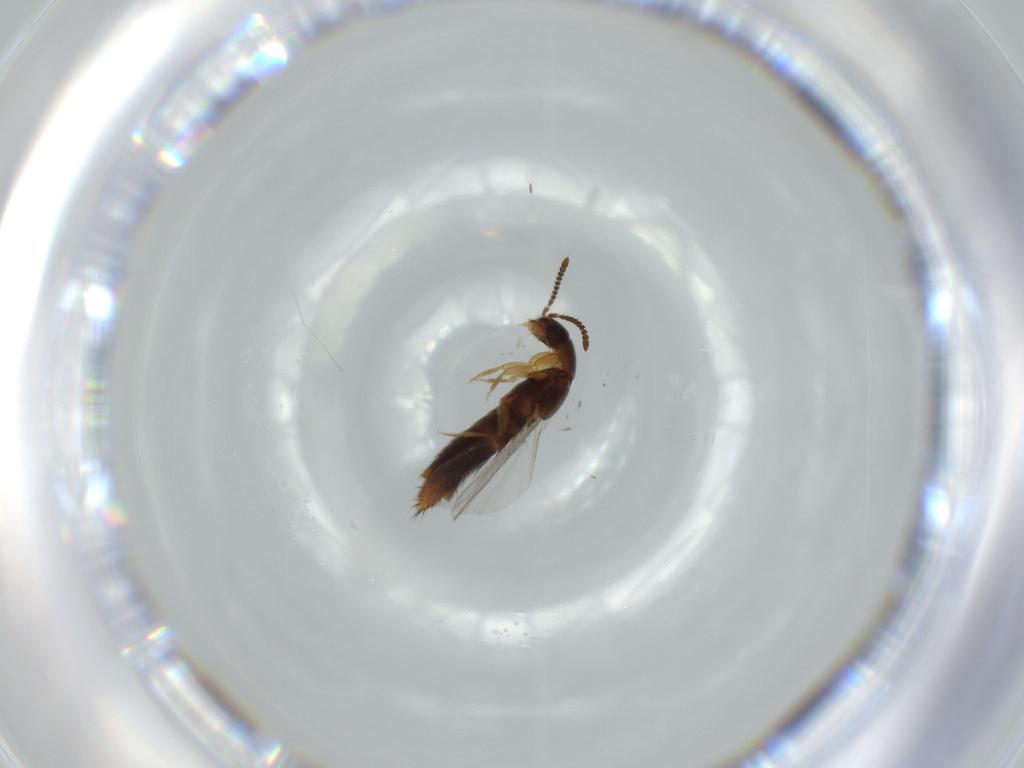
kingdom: Animalia
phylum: Arthropoda
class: Insecta
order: Coleoptera
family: Staphylinidae
